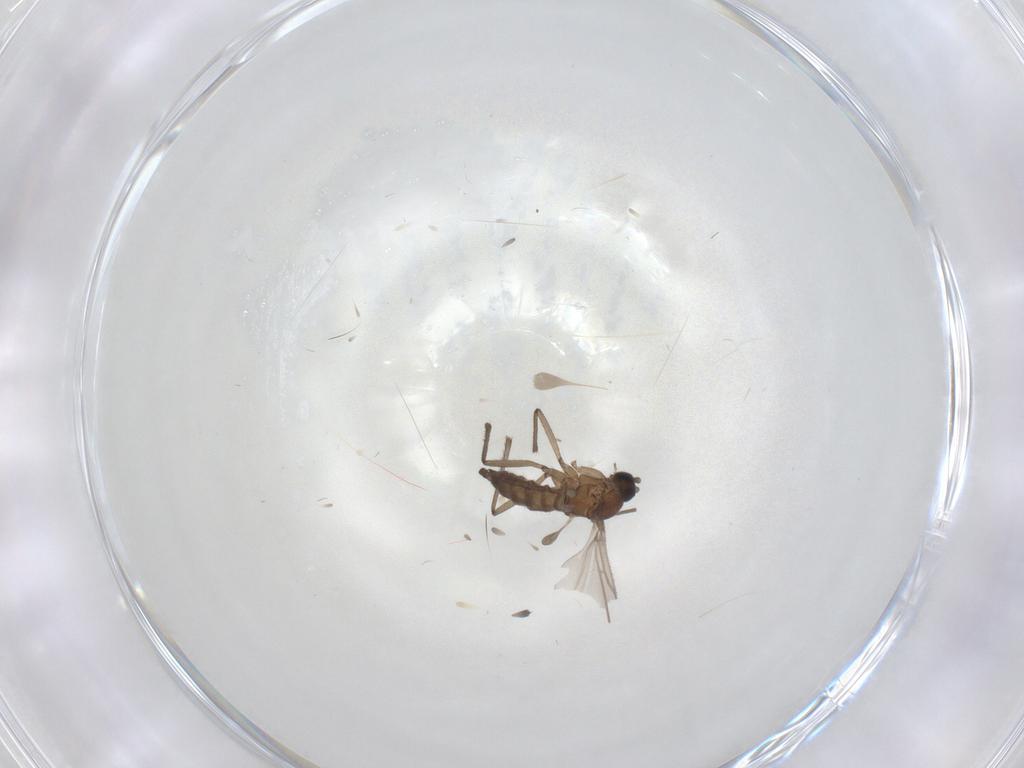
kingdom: Animalia
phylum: Arthropoda
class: Insecta
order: Diptera
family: Limoniidae
